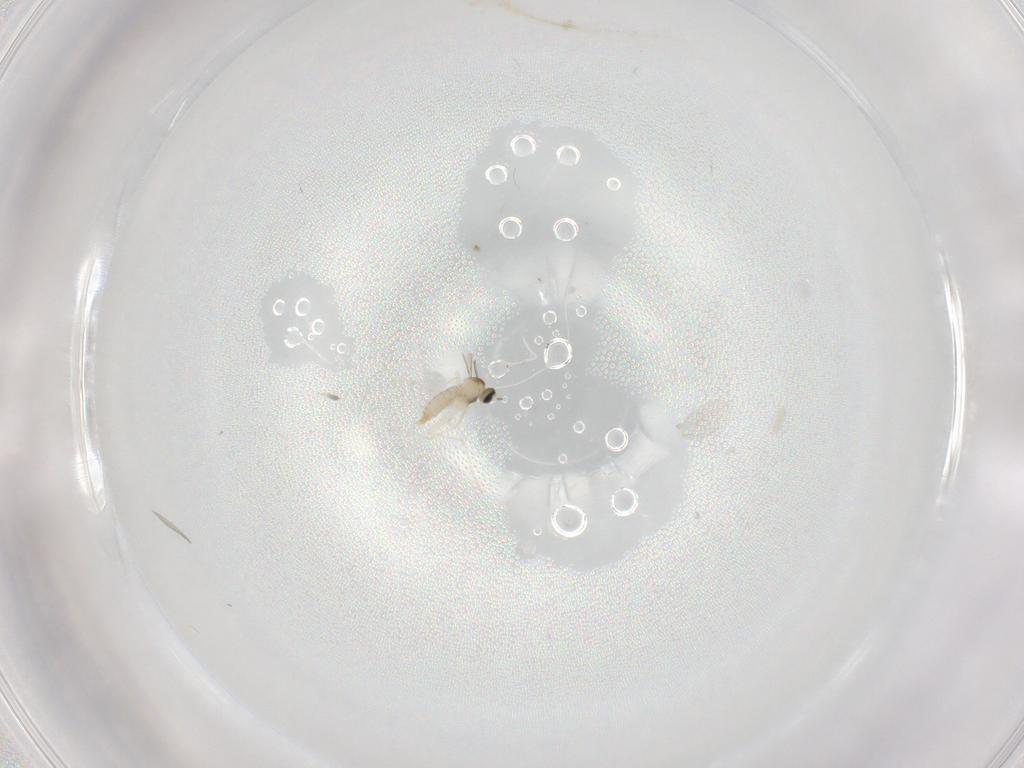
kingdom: Animalia
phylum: Arthropoda
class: Insecta
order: Diptera
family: Cecidomyiidae
